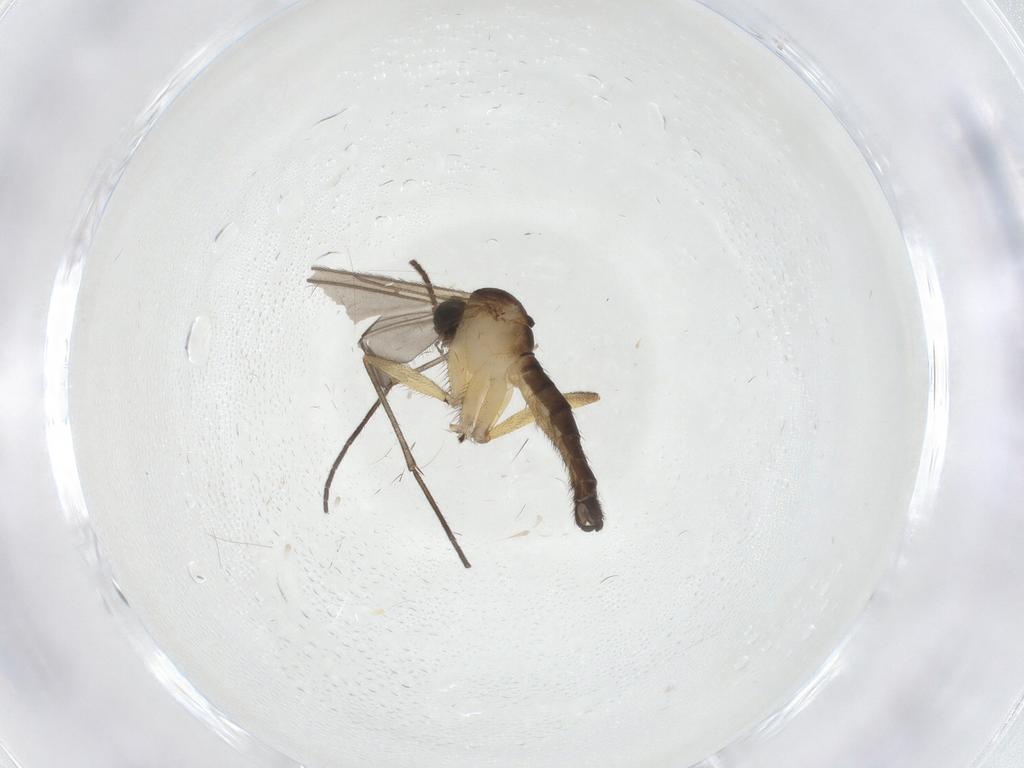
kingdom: Animalia
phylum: Arthropoda
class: Insecta
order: Diptera
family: Sciaridae
